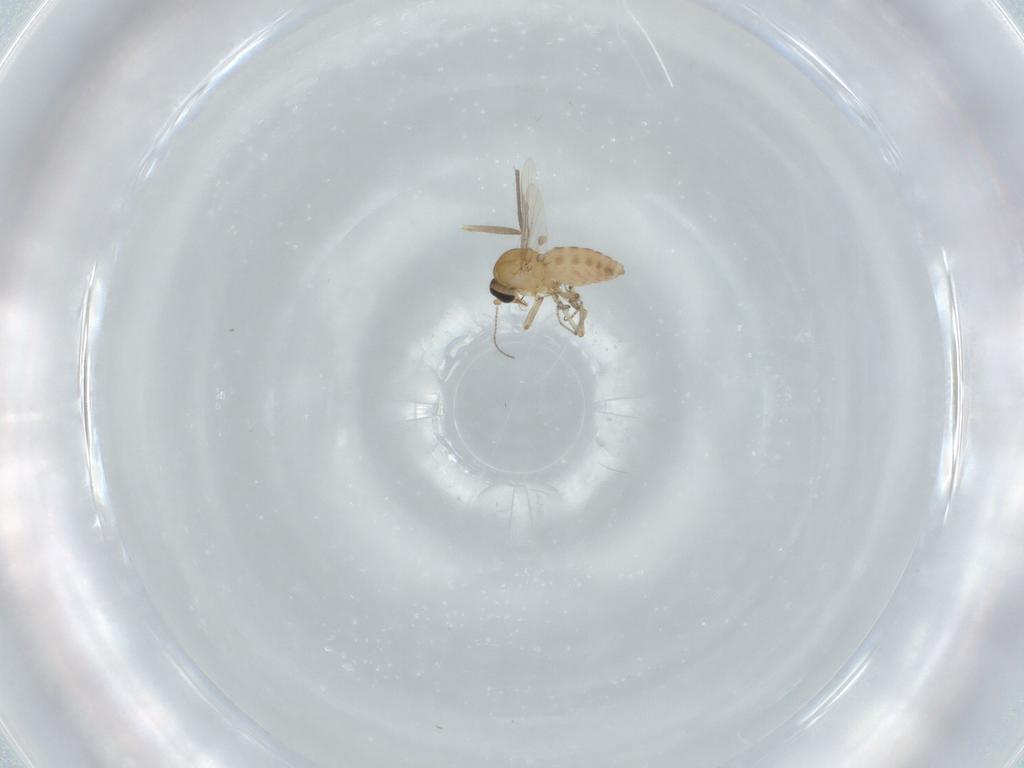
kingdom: Animalia
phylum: Arthropoda
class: Insecta
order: Diptera
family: Ceratopogonidae
